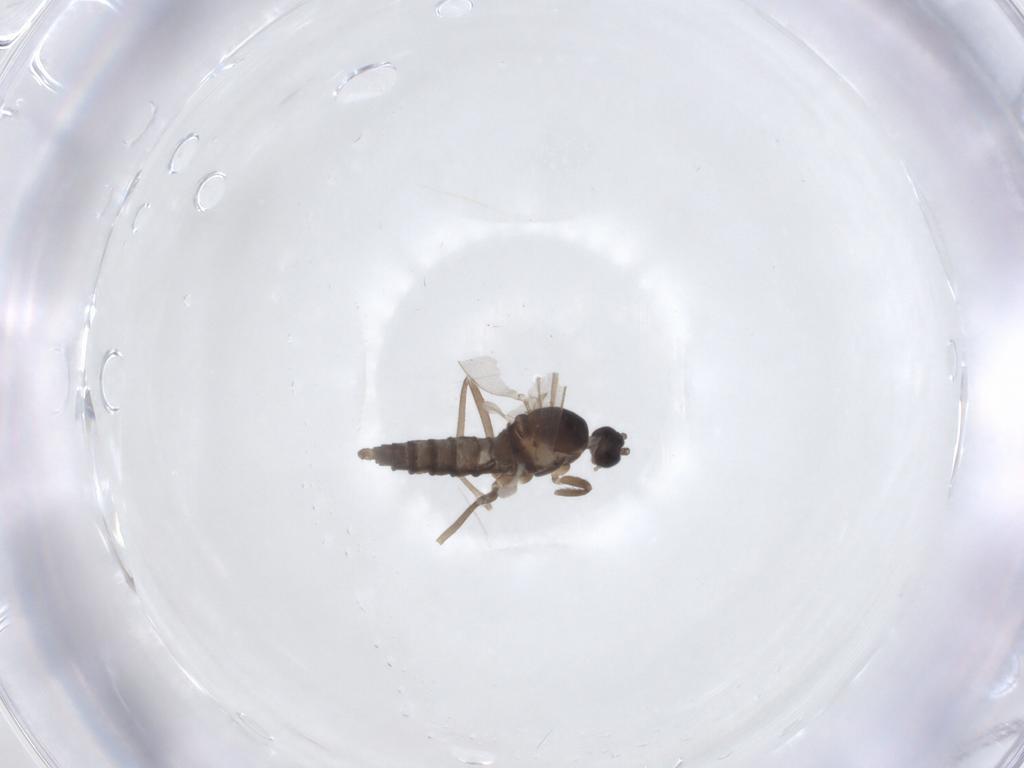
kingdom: Animalia
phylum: Arthropoda
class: Insecta
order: Diptera
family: Cecidomyiidae
